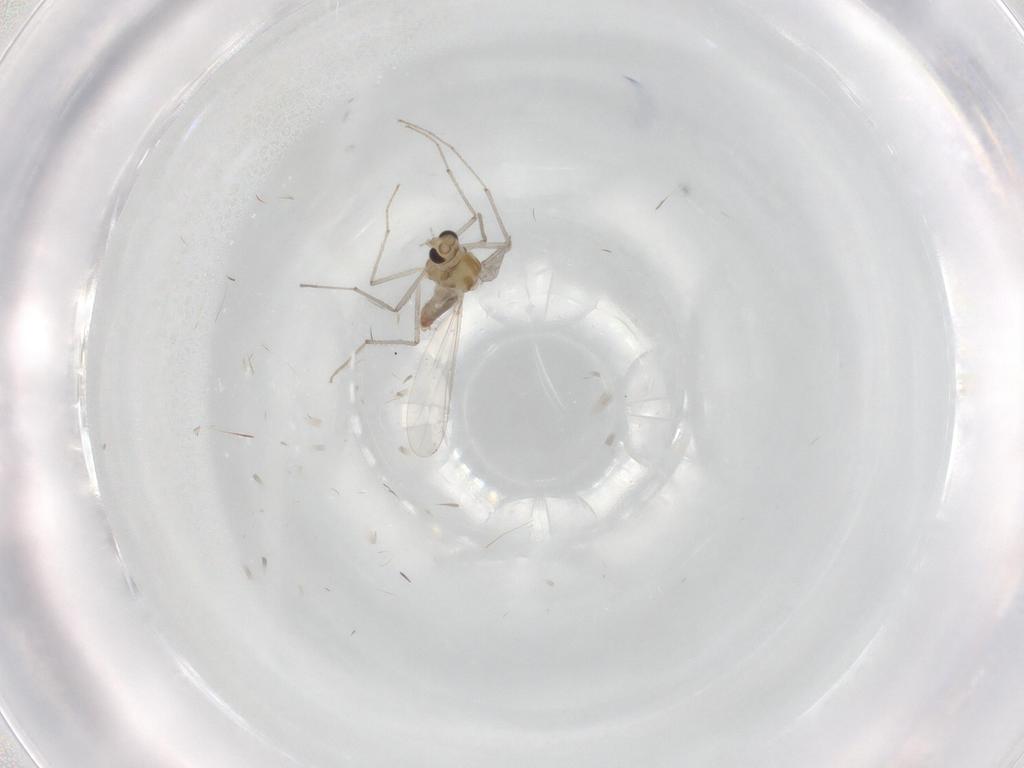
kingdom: Animalia
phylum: Arthropoda
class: Insecta
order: Diptera
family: Chironomidae
